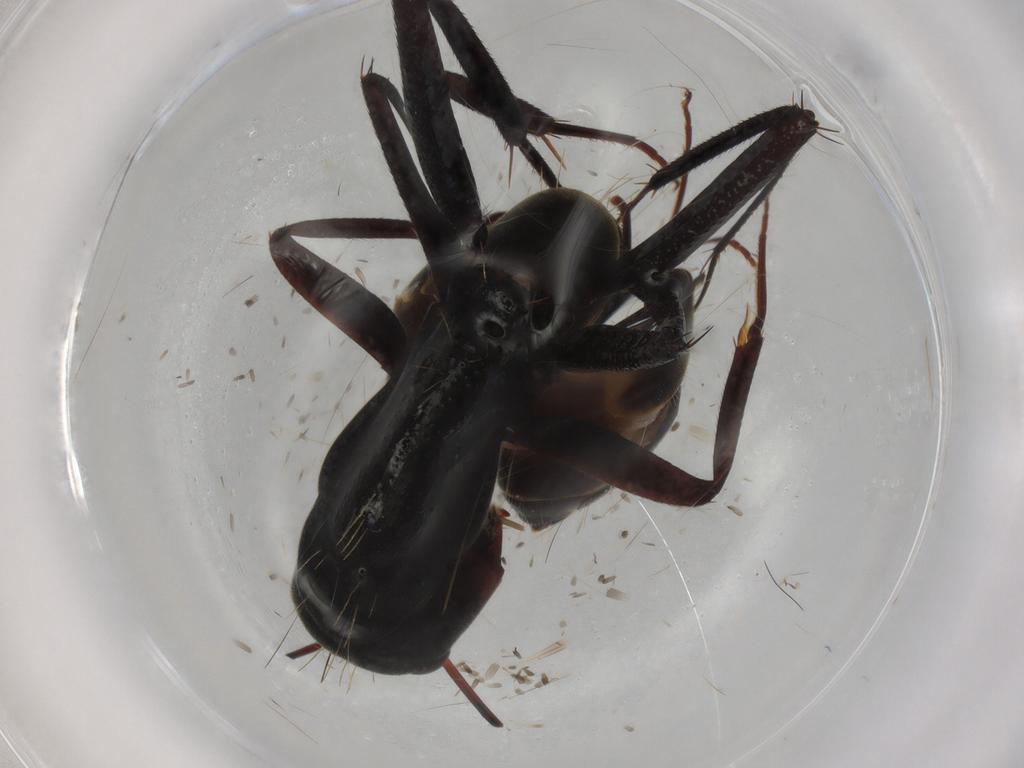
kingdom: Animalia
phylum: Arthropoda
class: Insecta
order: Hymenoptera
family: Formicidae
